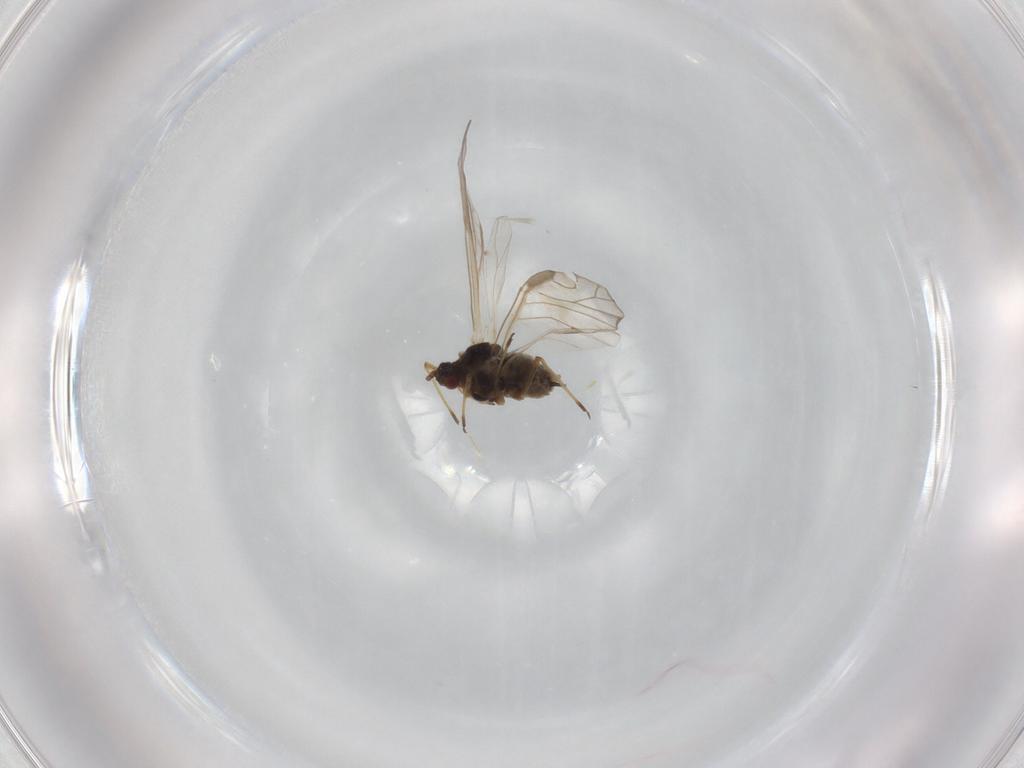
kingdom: Animalia
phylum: Arthropoda
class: Insecta
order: Hemiptera
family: Aphididae
